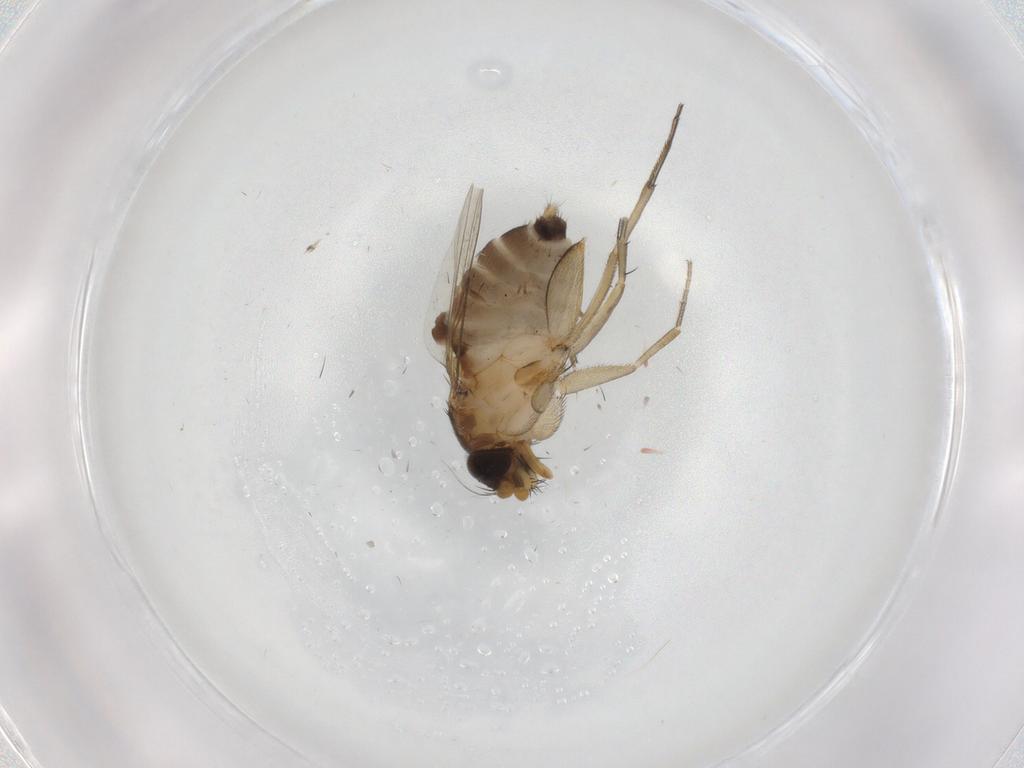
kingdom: Animalia
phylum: Arthropoda
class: Insecta
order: Diptera
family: Phoridae
